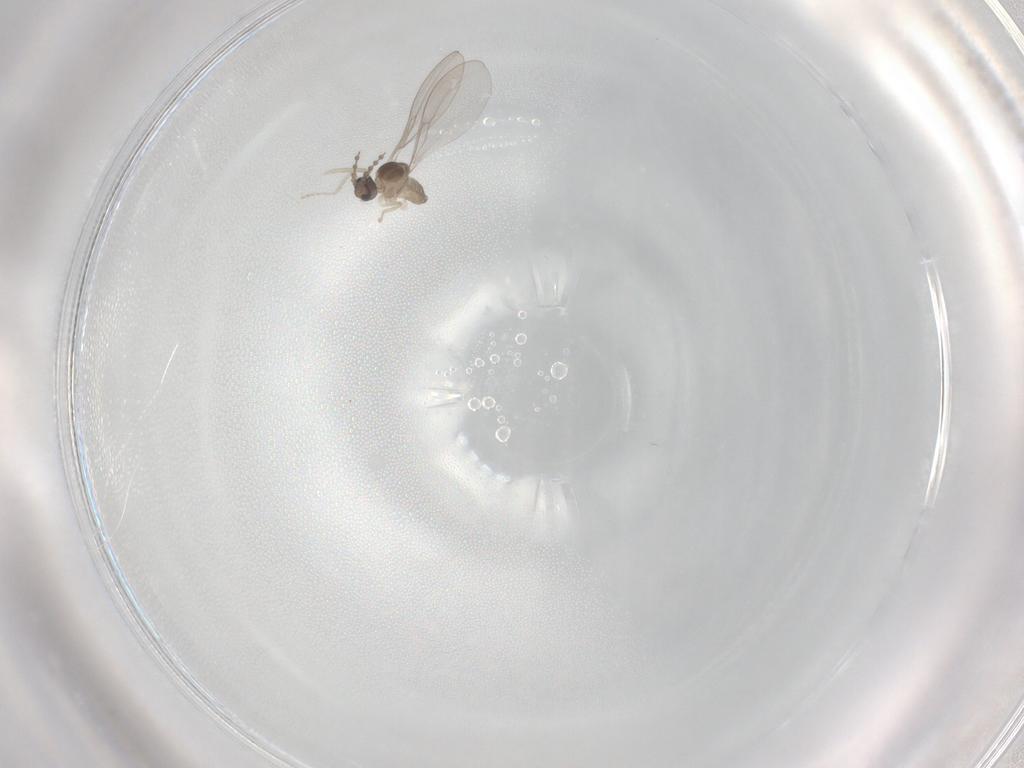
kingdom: Animalia
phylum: Arthropoda
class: Insecta
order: Diptera
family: Cecidomyiidae
